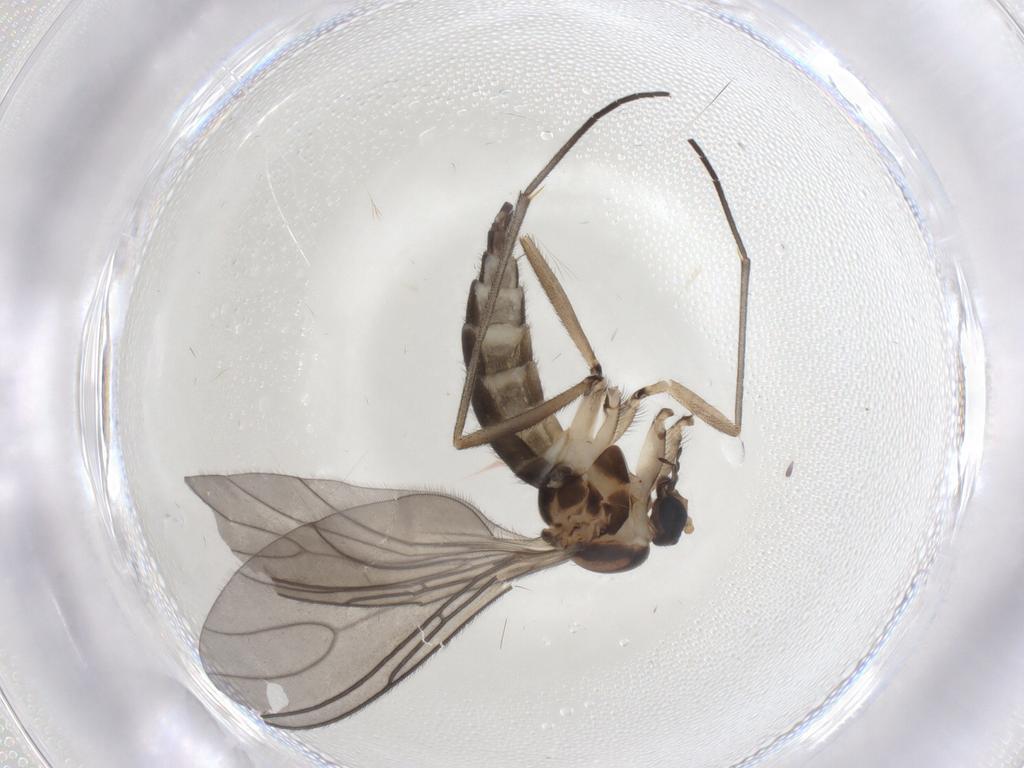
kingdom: Animalia
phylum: Arthropoda
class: Insecta
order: Diptera
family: Sciaridae
